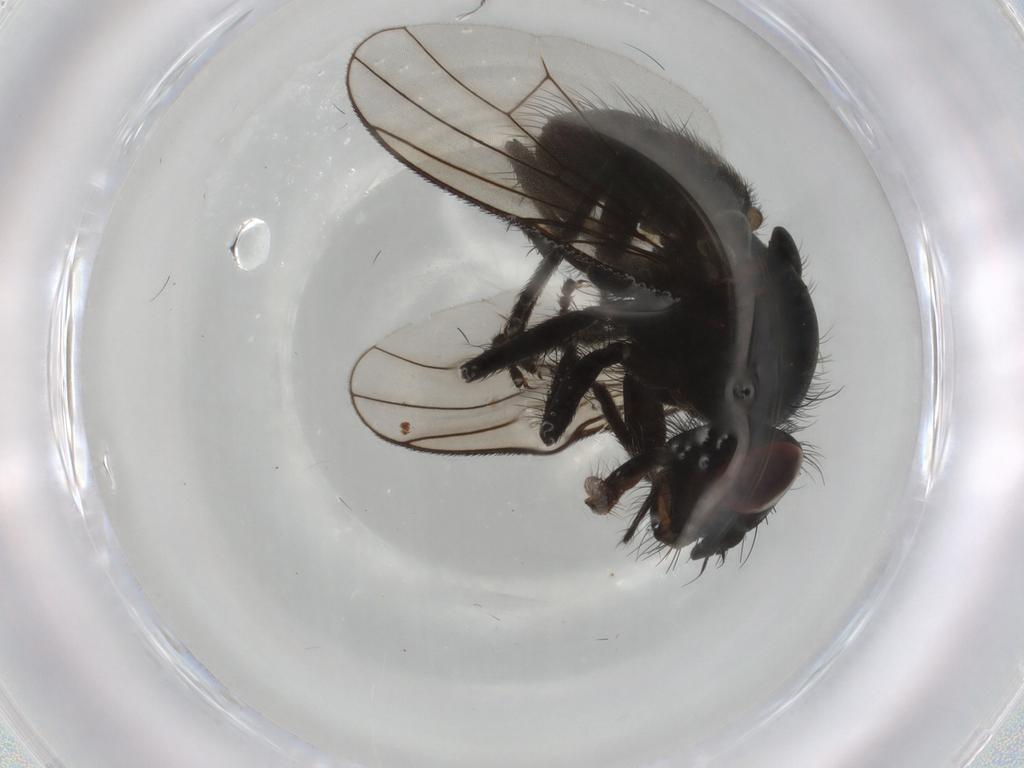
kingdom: Animalia
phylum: Arthropoda
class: Insecta
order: Diptera
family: Muscidae
